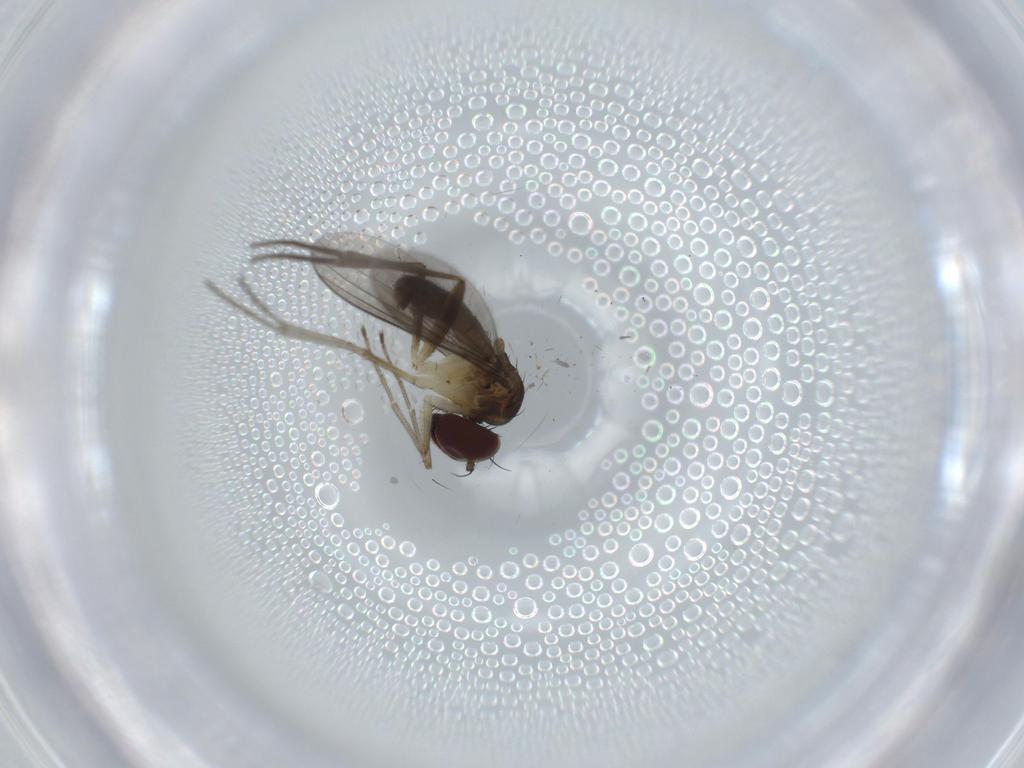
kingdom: Animalia
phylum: Arthropoda
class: Insecta
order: Diptera
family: Dolichopodidae
